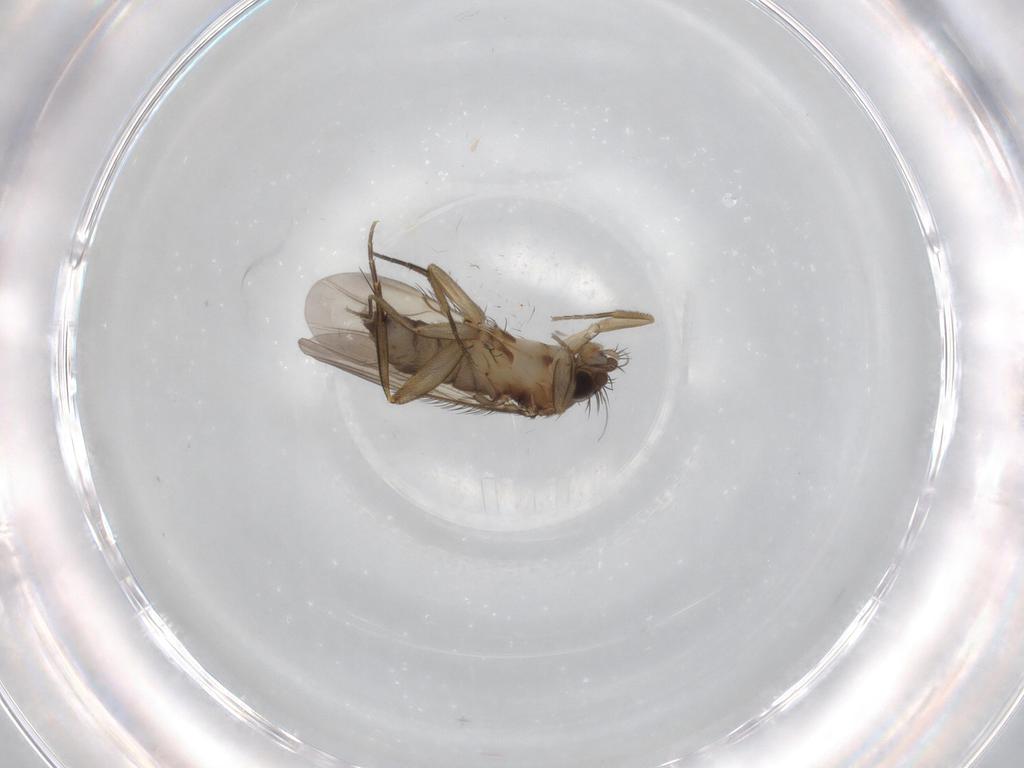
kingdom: Animalia
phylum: Arthropoda
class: Insecta
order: Diptera
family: Phoridae
